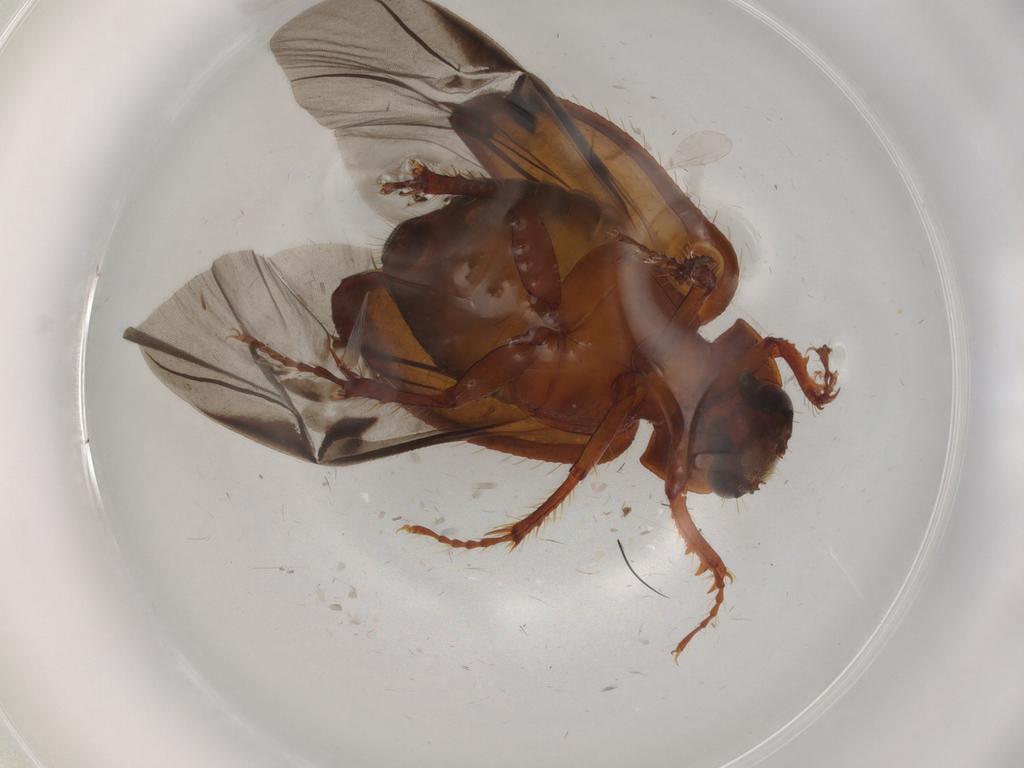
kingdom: Animalia
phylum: Arthropoda
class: Insecta
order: Coleoptera
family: Hybosoridae
